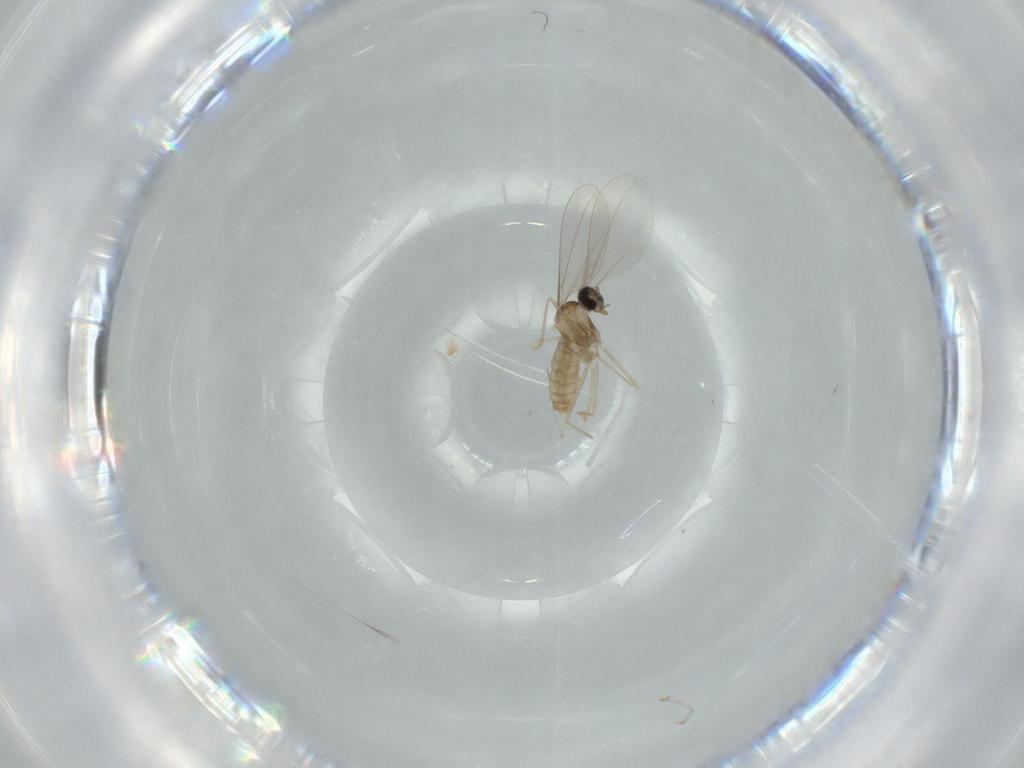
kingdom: Animalia
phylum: Arthropoda
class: Insecta
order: Diptera
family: Cecidomyiidae
